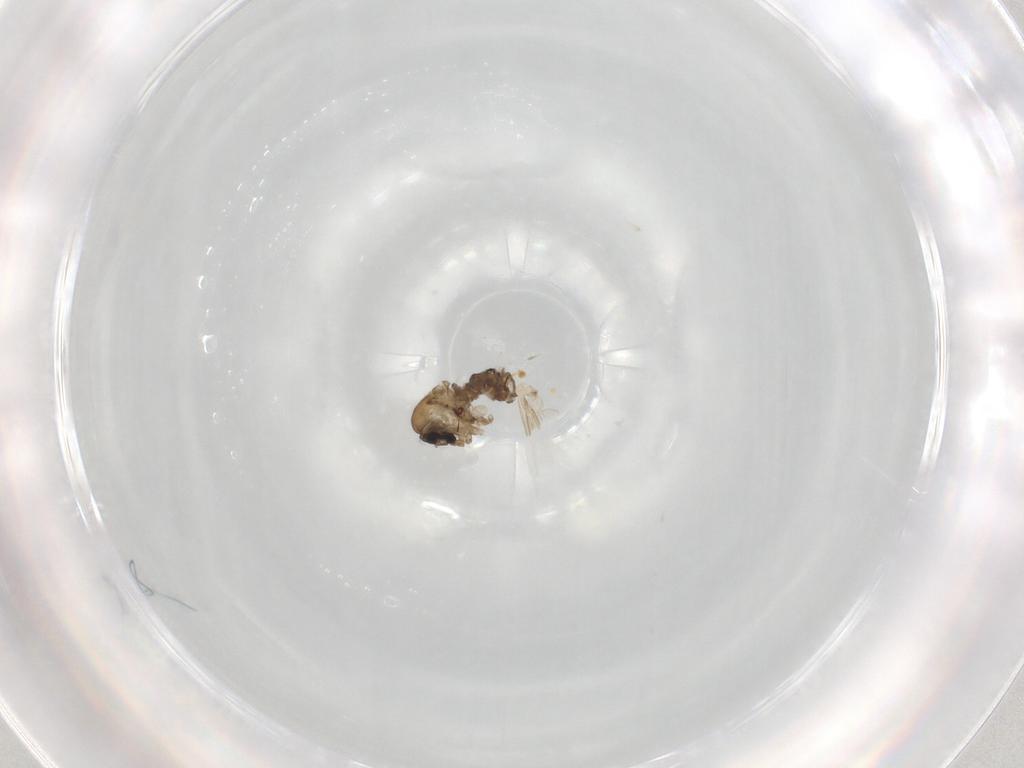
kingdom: Animalia
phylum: Arthropoda
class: Insecta
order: Diptera
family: Psychodidae
